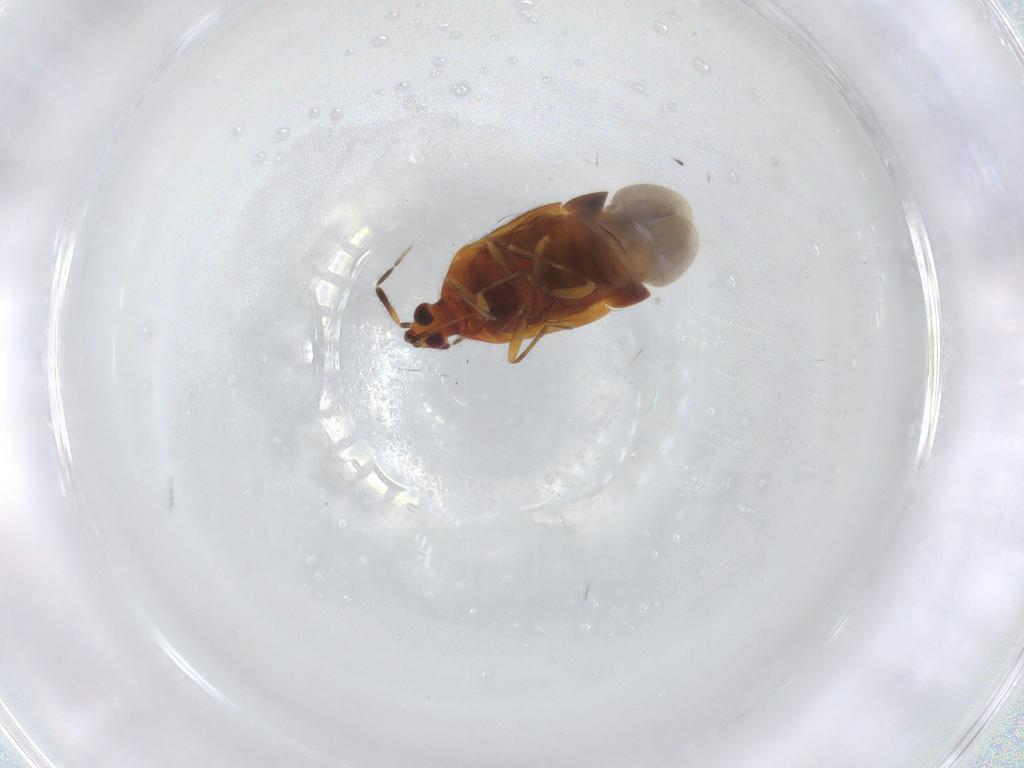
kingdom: Animalia
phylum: Arthropoda
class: Insecta
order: Hemiptera
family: Anthocoridae
